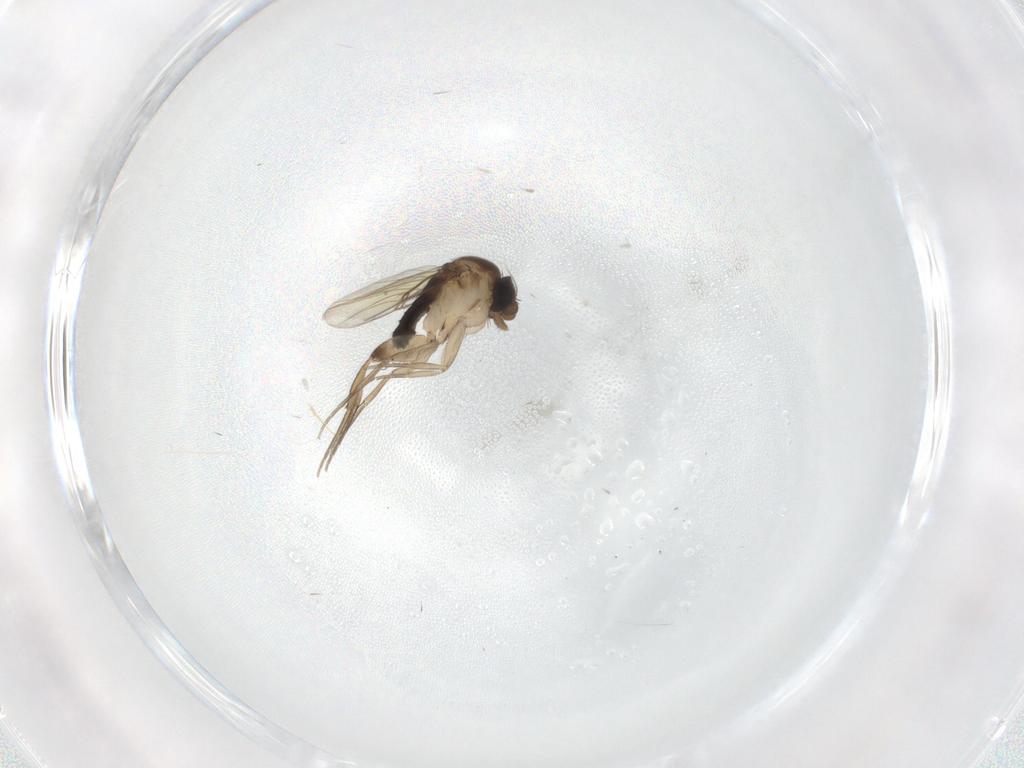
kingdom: Animalia
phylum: Arthropoda
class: Insecta
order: Diptera
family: Phoridae
